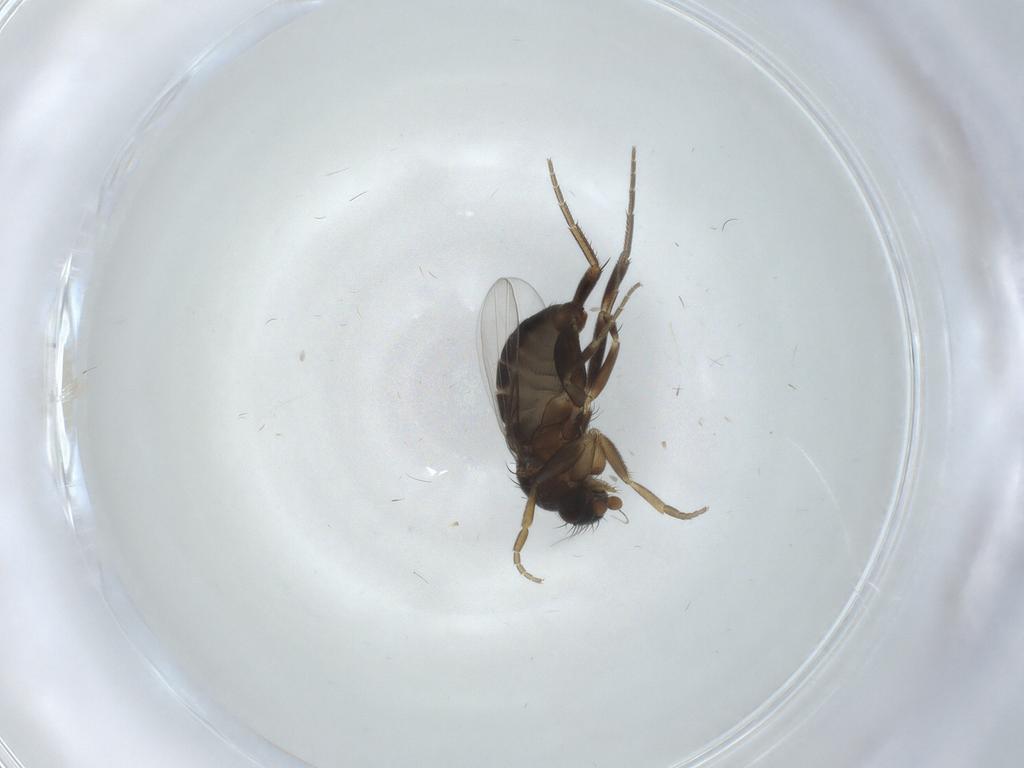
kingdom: Animalia
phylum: Arthropoda
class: Insecta
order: Diptera
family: Phoridae
